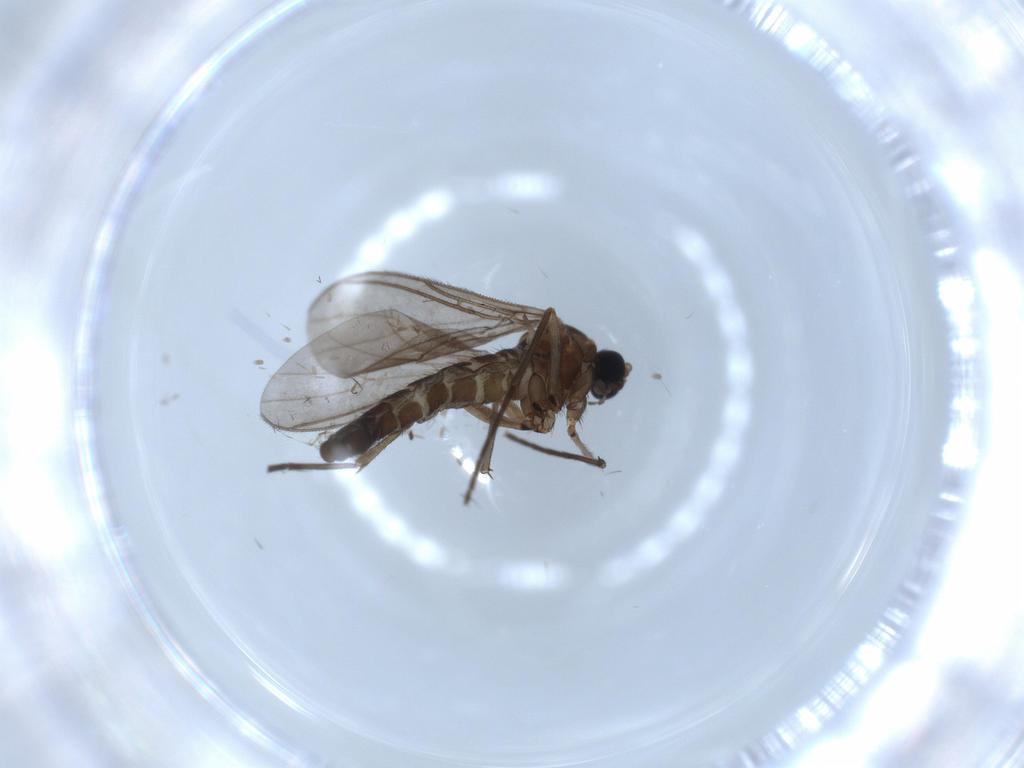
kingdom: Animalia
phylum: Arthropoda
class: Insecta
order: Diptera
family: Sciaridae
